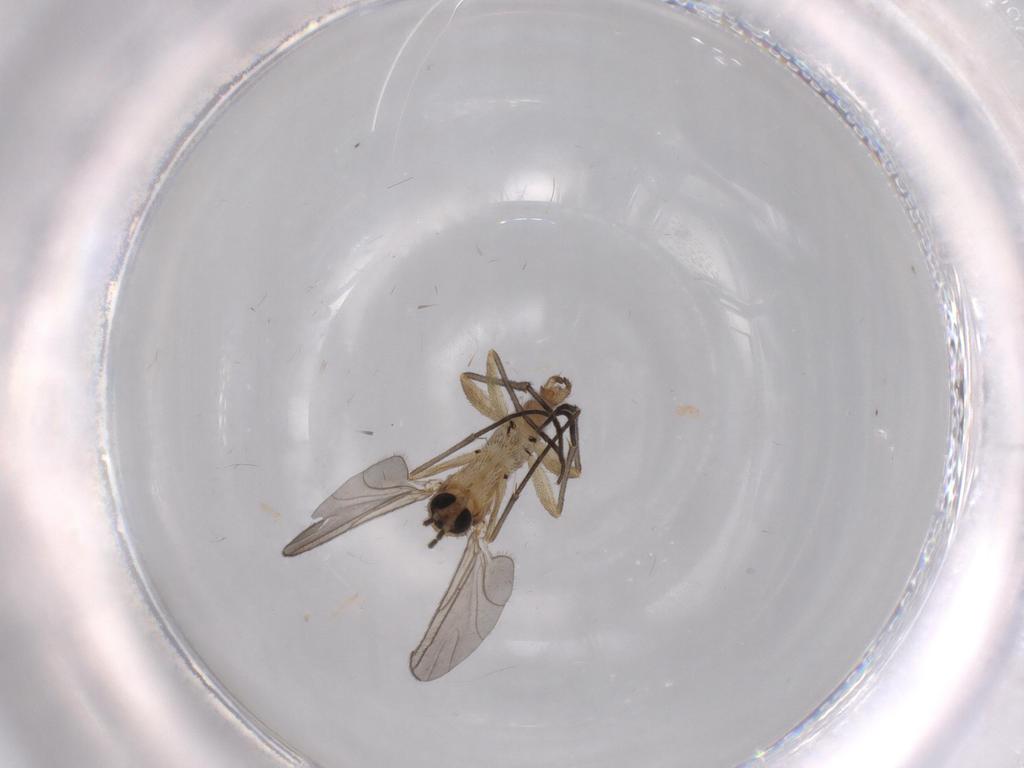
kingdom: Animalia
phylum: Arthropoda
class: Insecta
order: Diptera
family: Sciaridae
